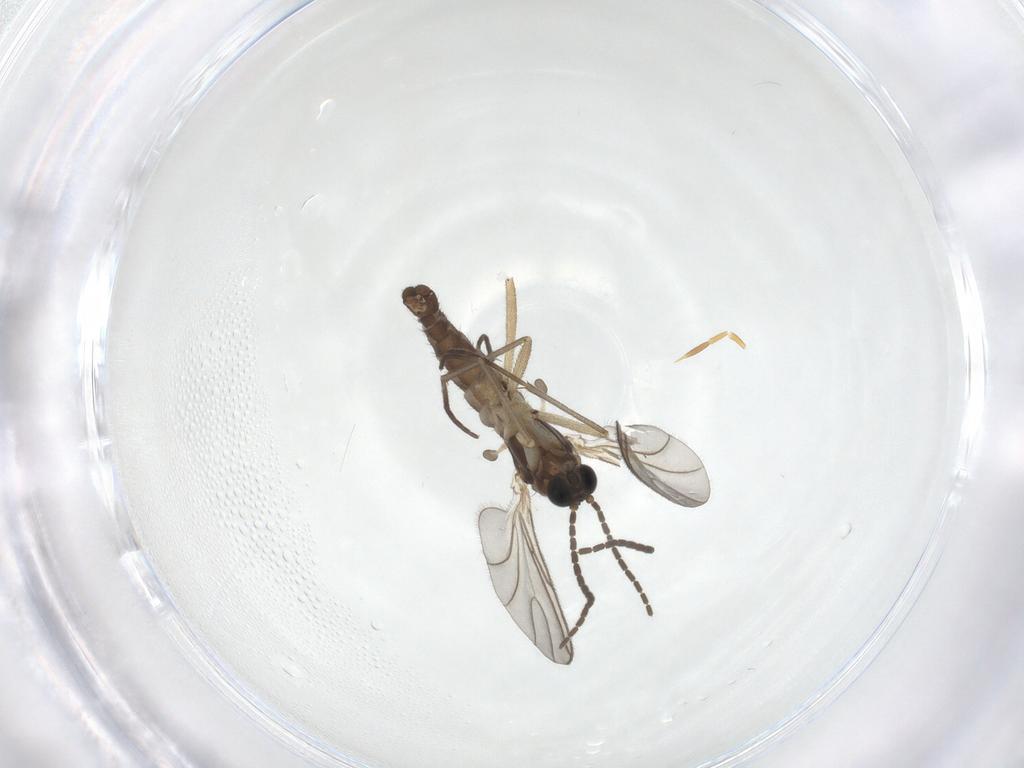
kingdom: Animalia
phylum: Arthropoda
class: Insecta
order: Diptera
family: Sciaridae
